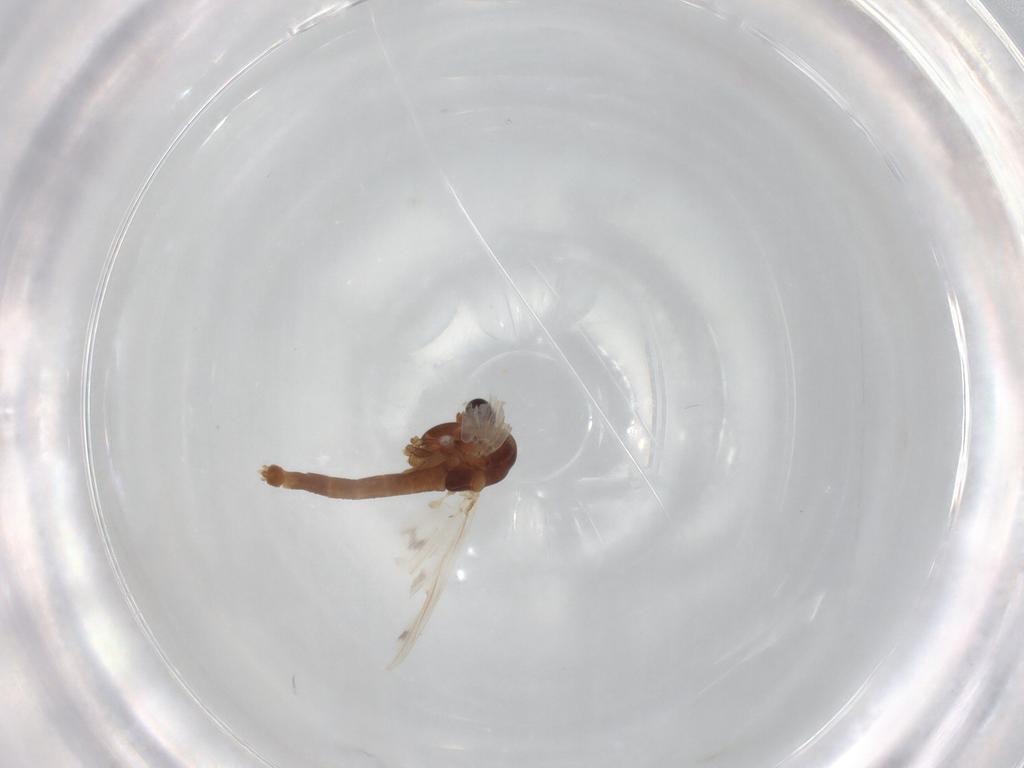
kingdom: Animalia
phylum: Arthropoda
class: Insecta
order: Diptera
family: Chironomidae
